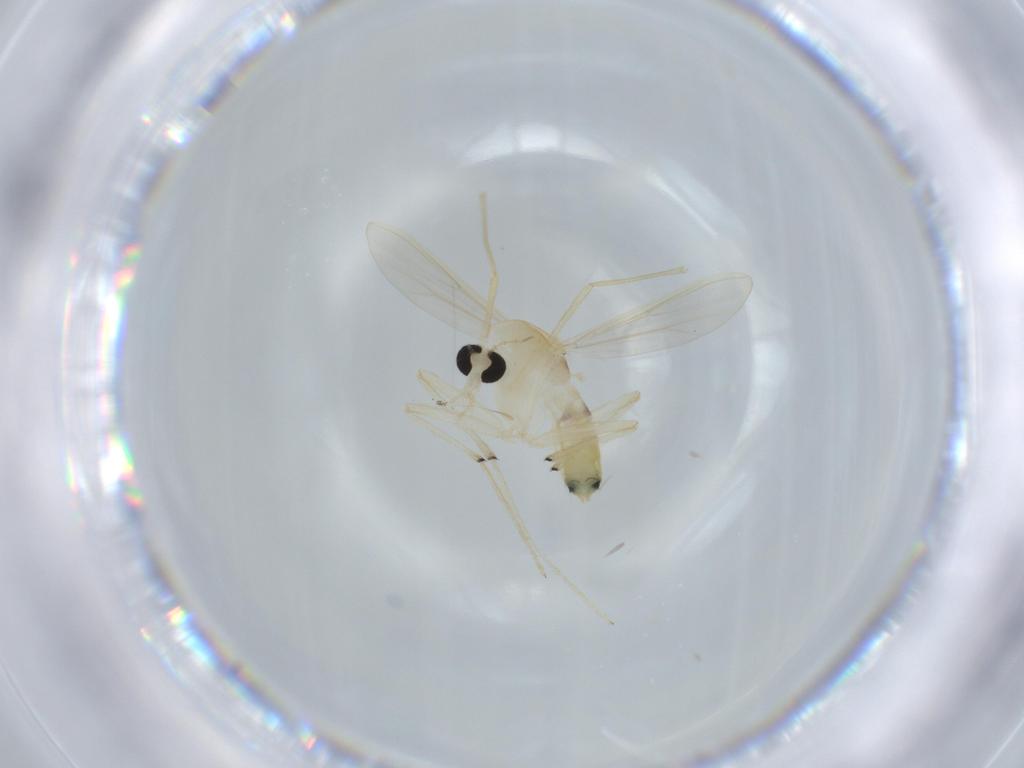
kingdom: Animalia
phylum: Arthropoda
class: Insecta
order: Diptera
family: Chironomidae
